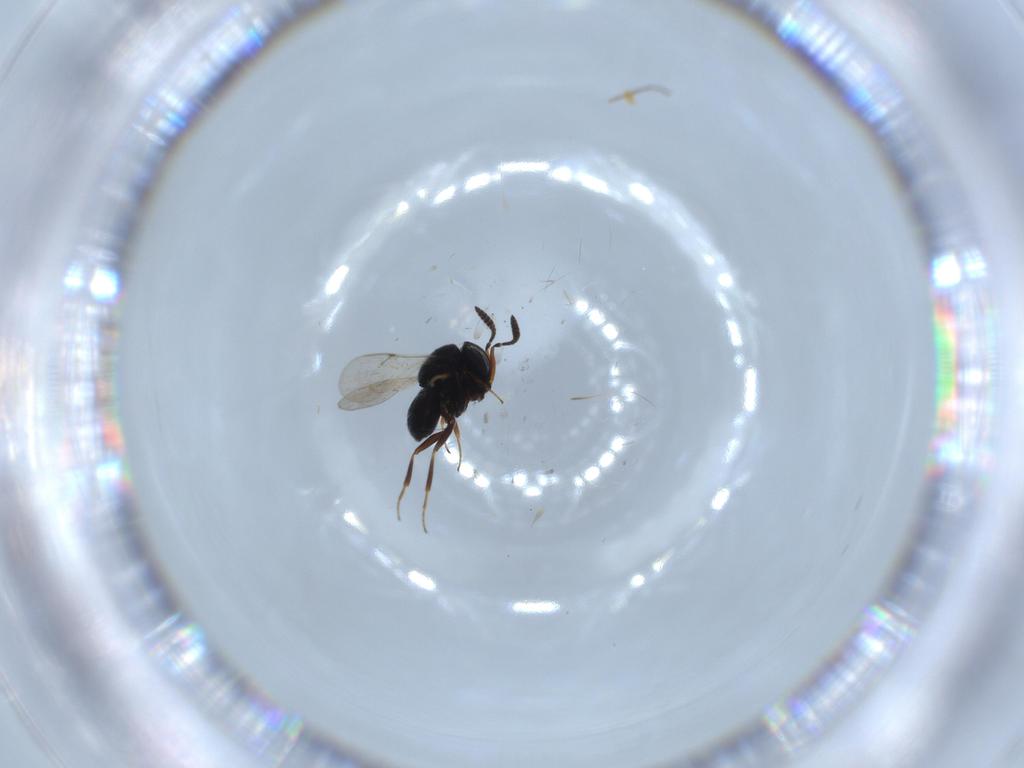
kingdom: Animalia
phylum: Arthropoda
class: Insecta
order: Hymenoptera
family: Scelionidae
